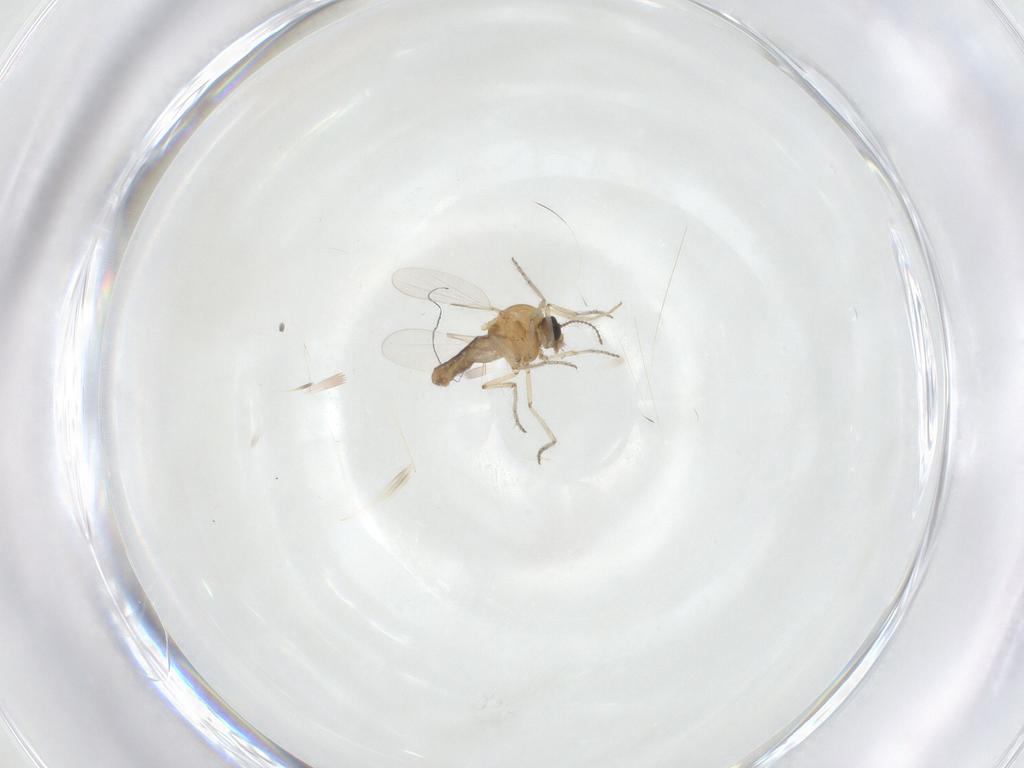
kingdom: Animalia
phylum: Arthropoda
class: Insecta
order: Diptera
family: Ceratopogonidae
